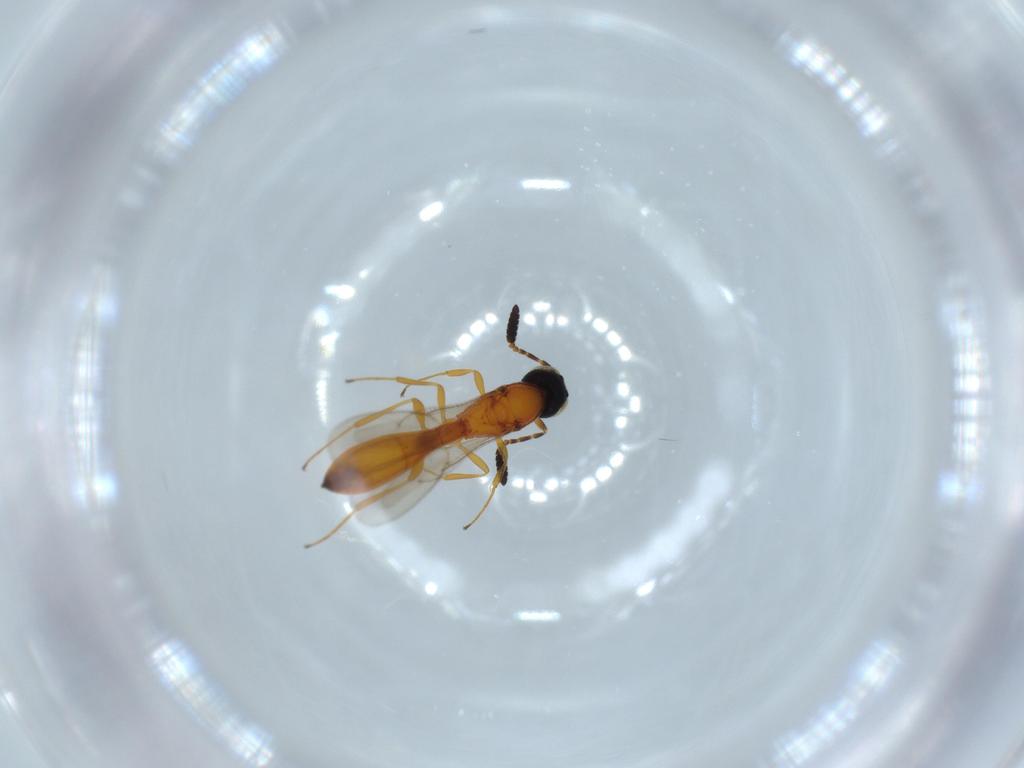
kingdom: Animalia
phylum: Arthropoda
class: Insecta
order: Hymenoptera
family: Scelionidae
